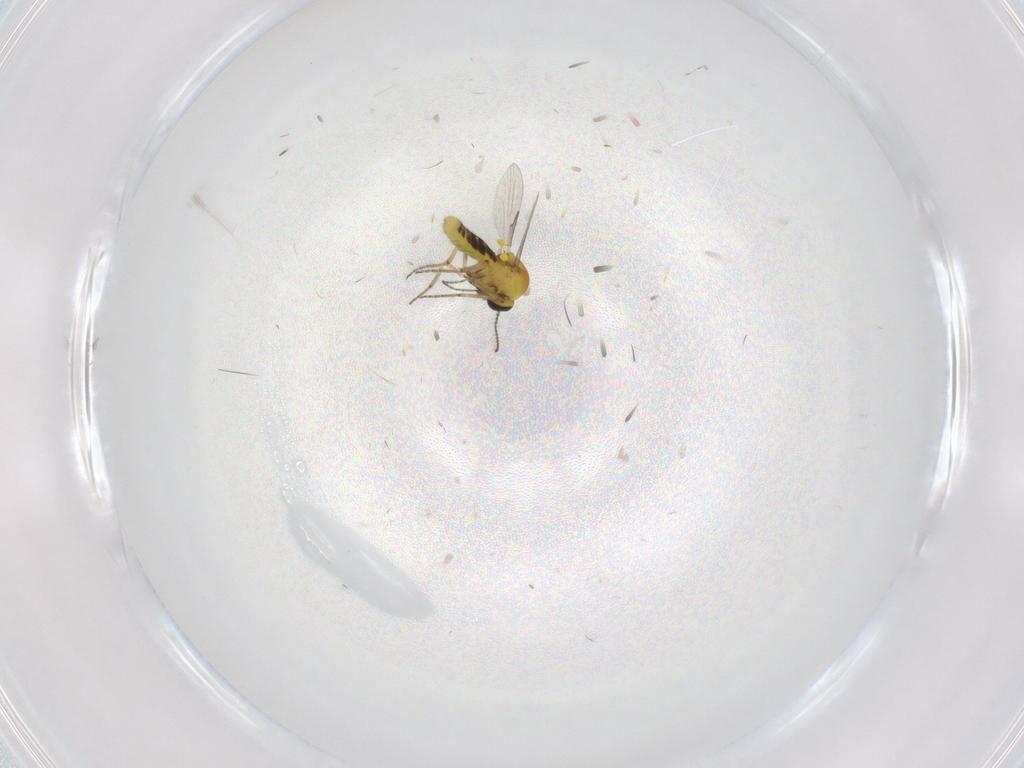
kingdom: Animalia
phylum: Arthropoda
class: Insecta
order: Diptera
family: Ceratopogonidae
